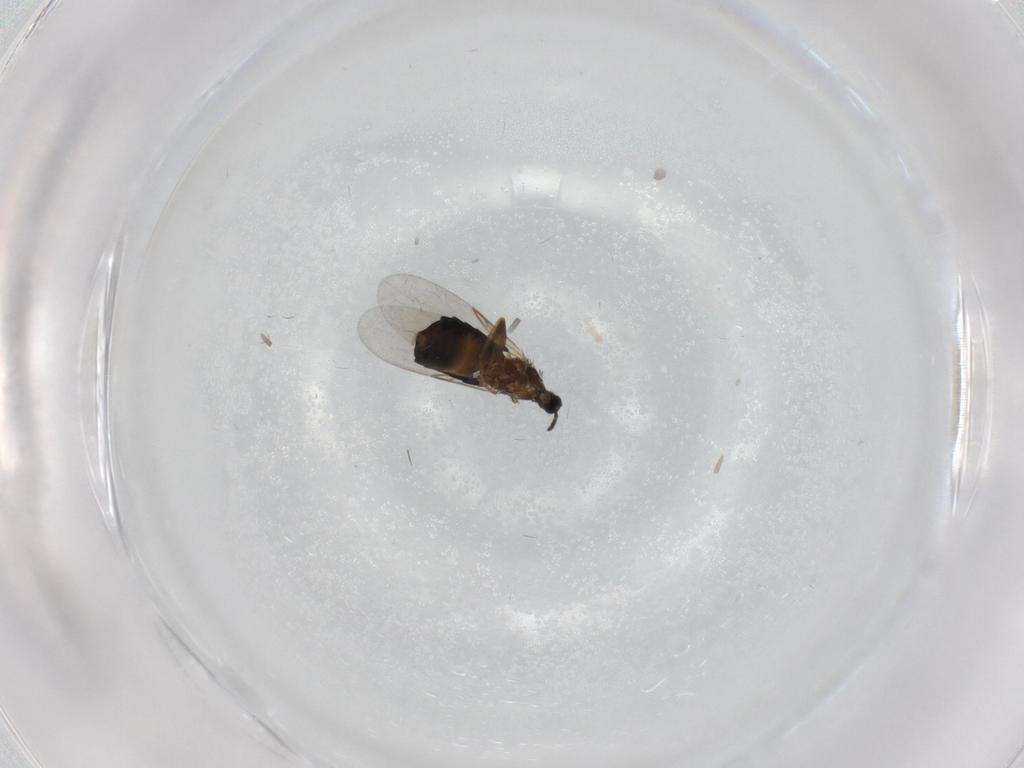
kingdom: Animalia
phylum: Arthropoda
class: Insecta
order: Diptera
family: Scatopsidae
